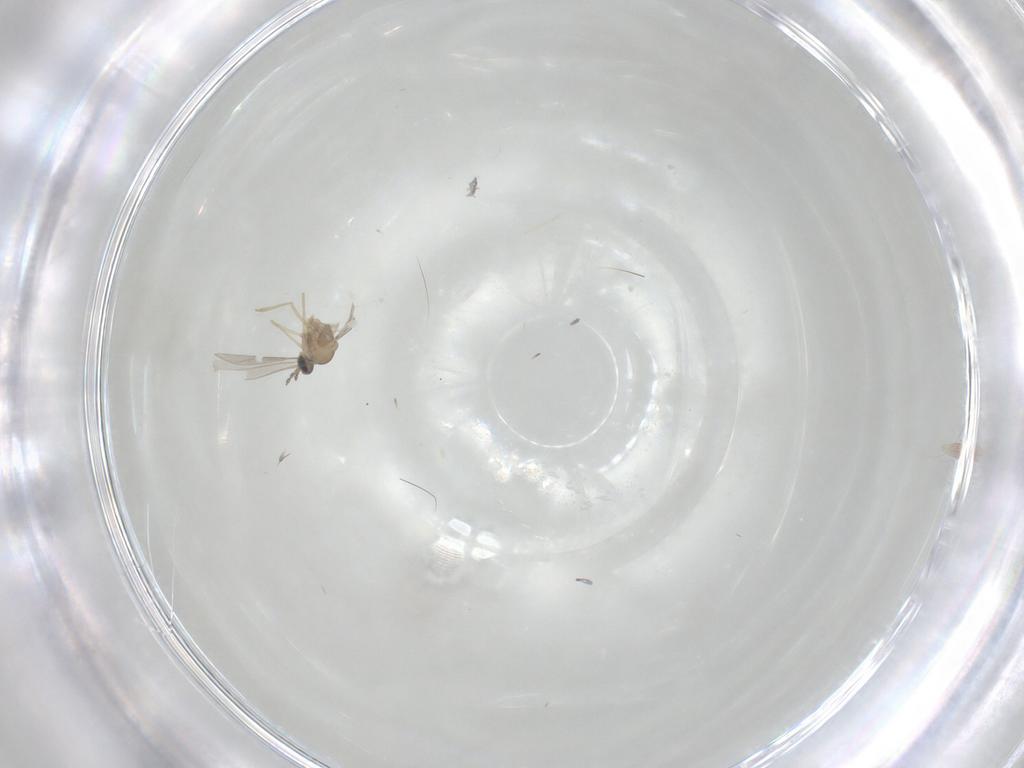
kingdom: Animalia
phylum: Arthropoda
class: Insecta
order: Diptera
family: Cecidomyiidae
